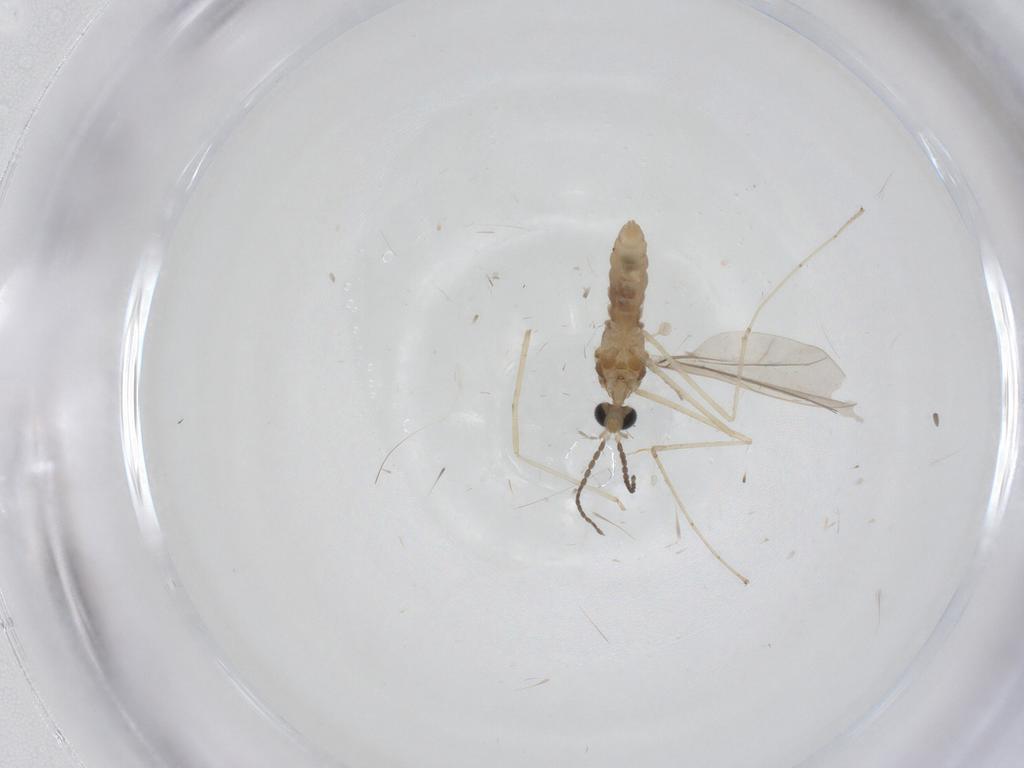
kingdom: Animalia
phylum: Arthropoda
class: Insecta
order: Diptera
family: Cecidomyiidae
